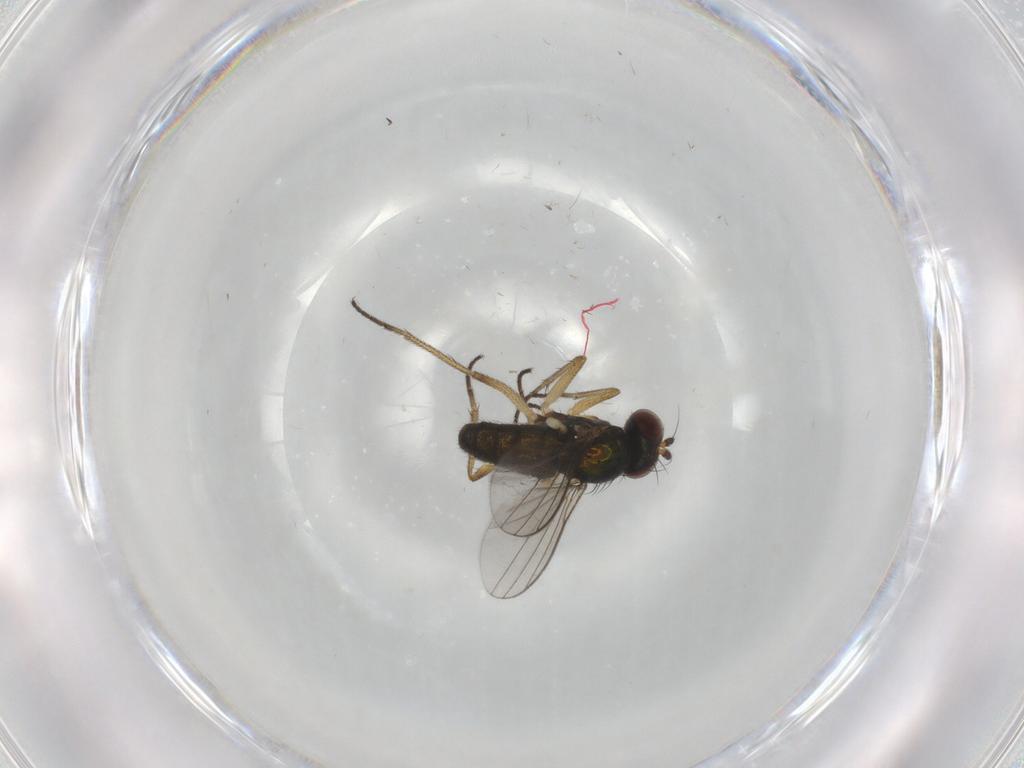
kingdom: Animalia
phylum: Arthropoda
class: Insecta
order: Diptera
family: Dolichopodidae
